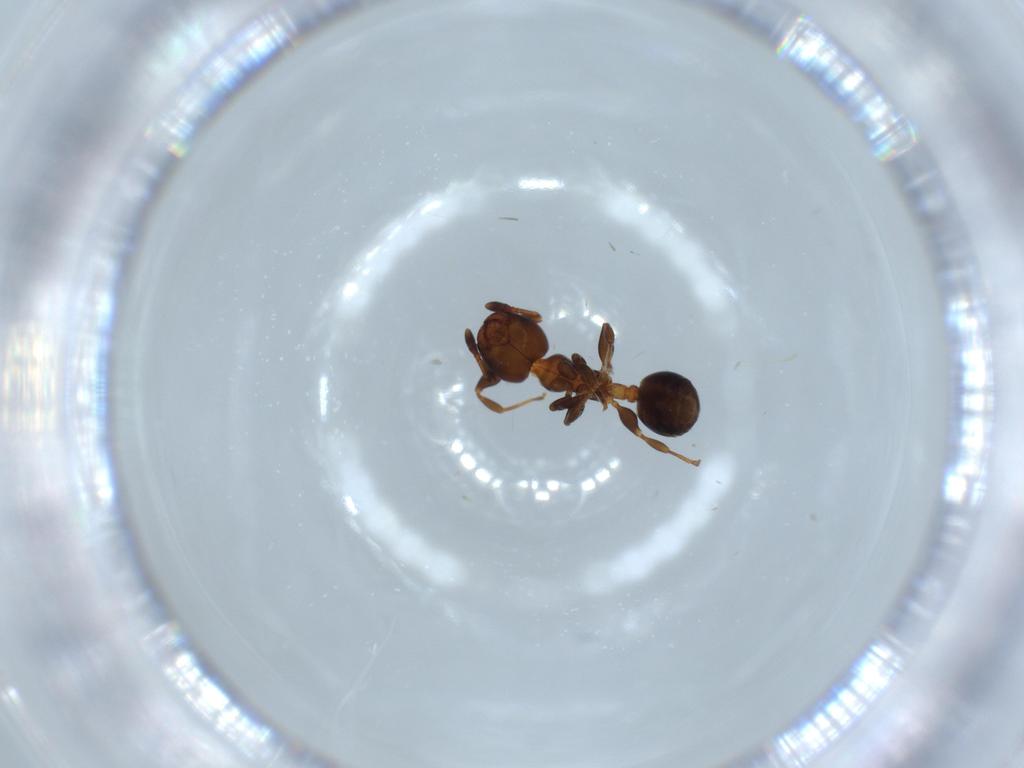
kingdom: Animalia
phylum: Arthropoda
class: Insecta
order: Hymenoptera
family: Formicidae
